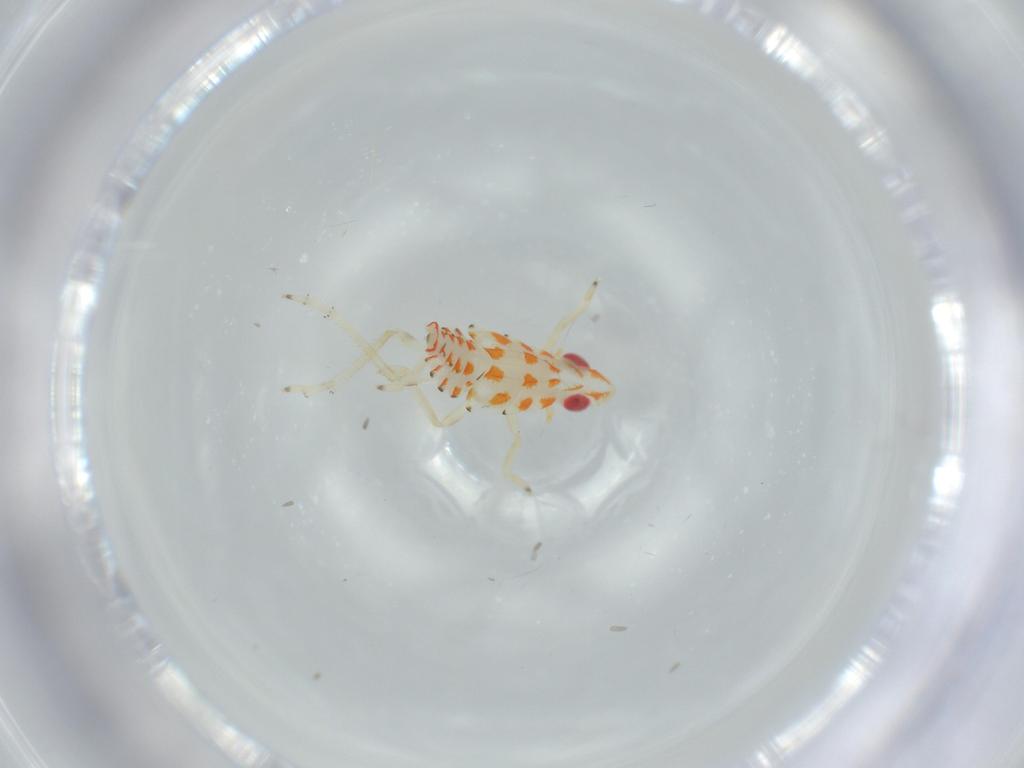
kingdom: Animalia
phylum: Arthropoda
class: Insecta
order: Hemiptera
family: Tropiduchidae
